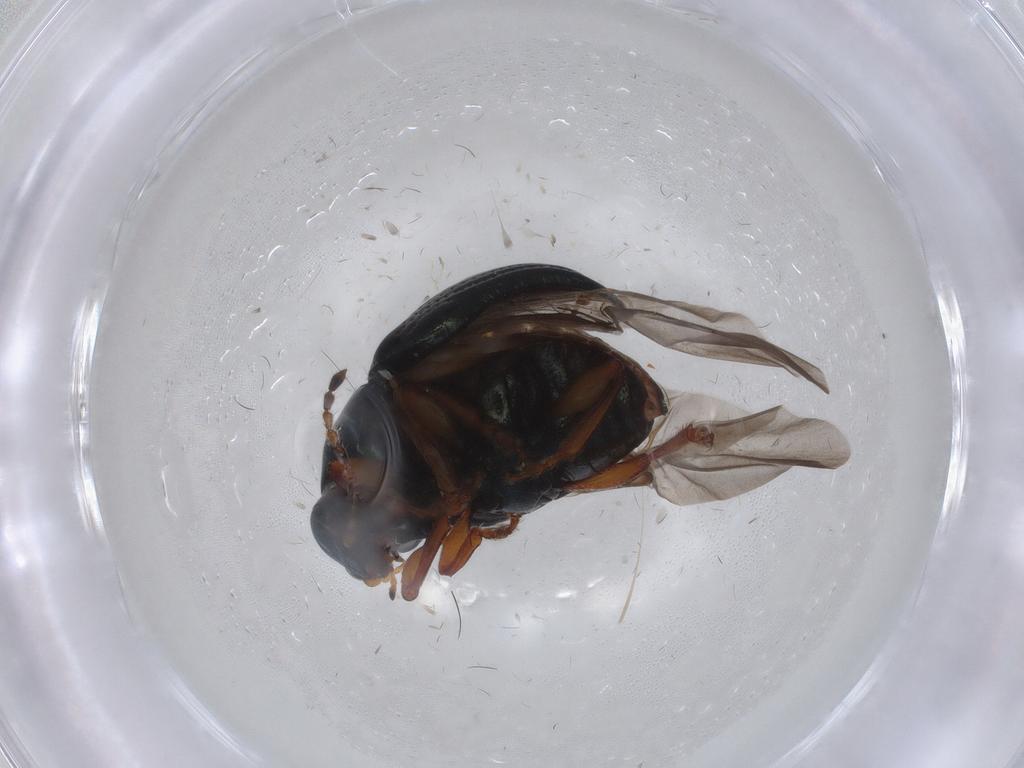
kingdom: Animalia
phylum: Arthropoda
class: Insecta
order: Coleoptera
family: Chrysomelidae
